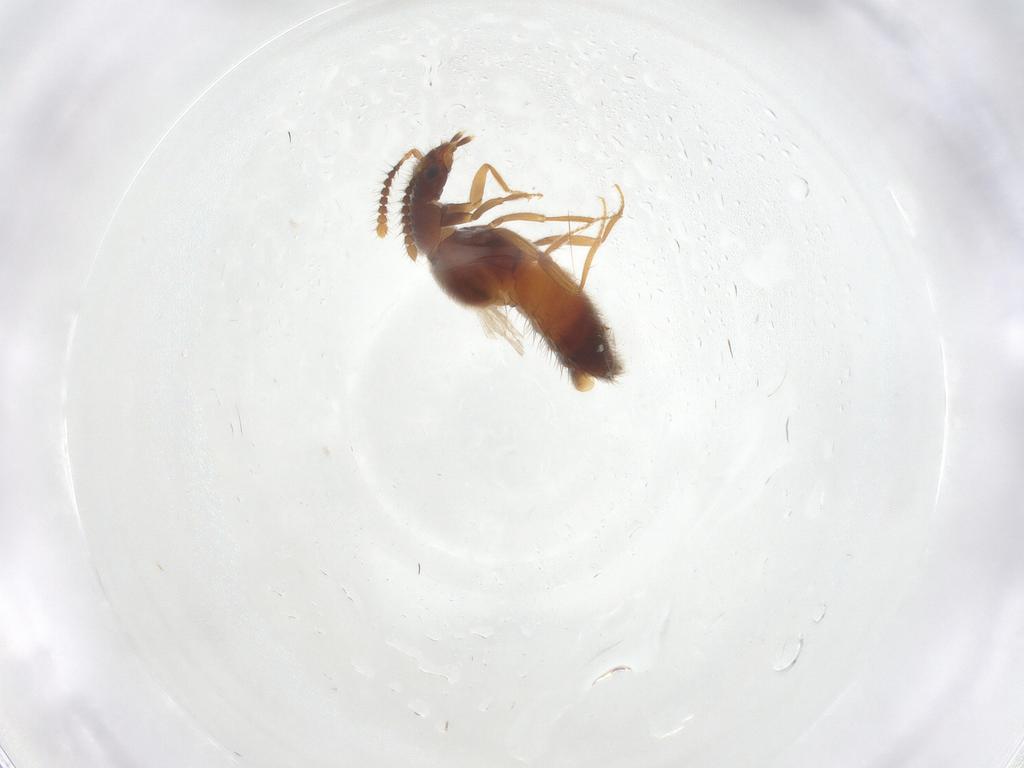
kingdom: Animalia
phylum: Arthropoda
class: Insecta
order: Coleoptera
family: Staphylinidae
